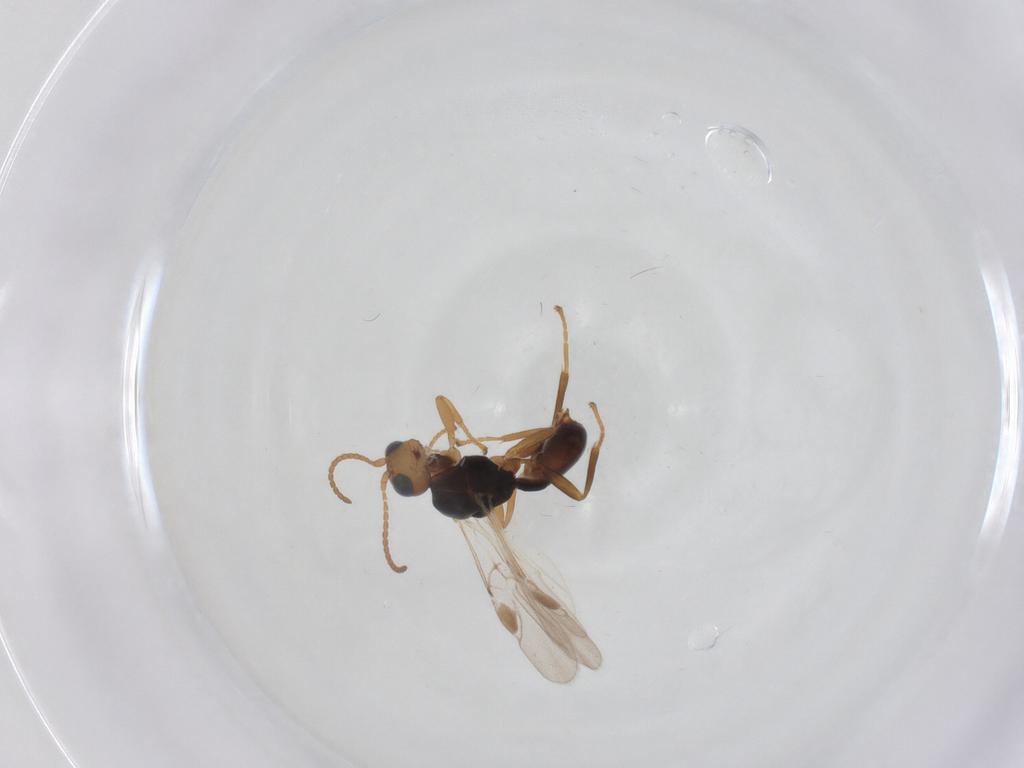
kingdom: Animalia
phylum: Arthropoda
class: Insecta
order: Hymenoptera
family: Braconidae
